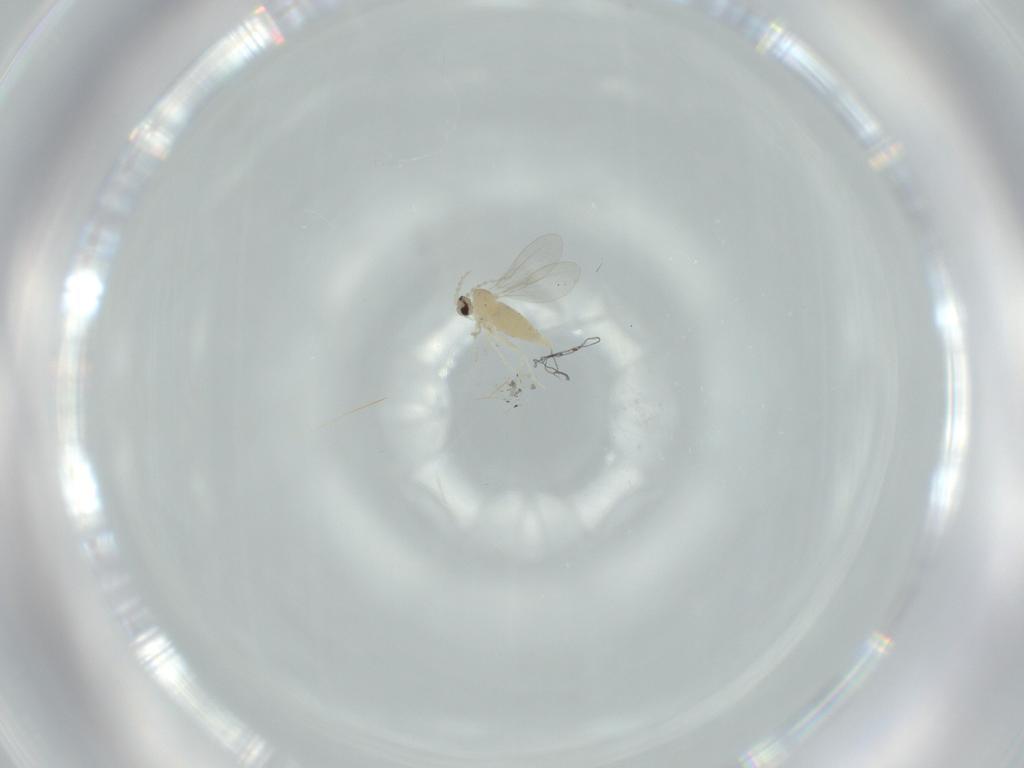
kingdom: Animalia
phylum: Arthropoda
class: Insecta
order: Diptera
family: Cecidomyiidae
